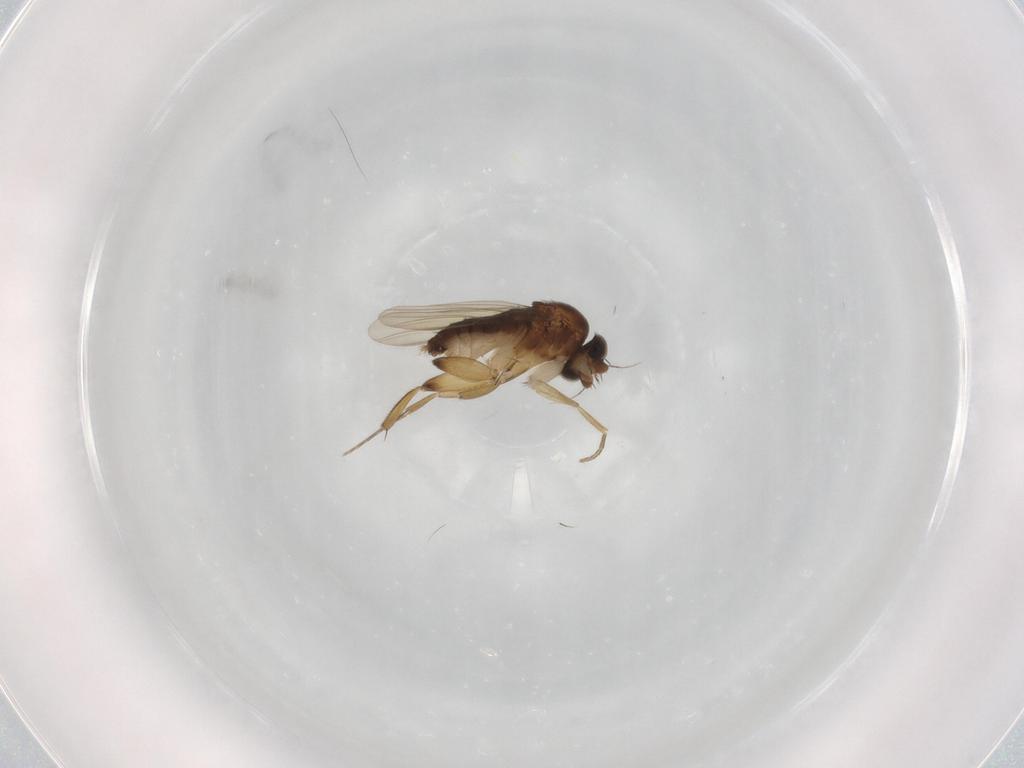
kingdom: Animalia
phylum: Arthropoda
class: Insecta
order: Diptera
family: Phoridae
